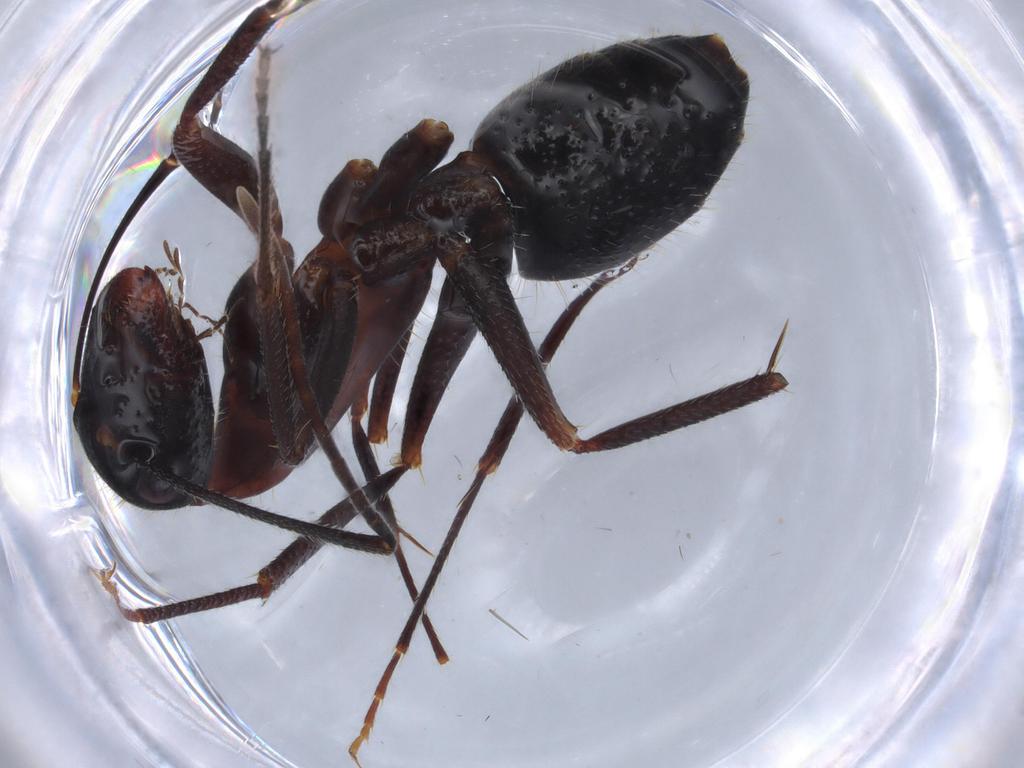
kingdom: Animalia
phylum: Arthropoda
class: Insecta
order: Hymenoptera
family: Formicidae
